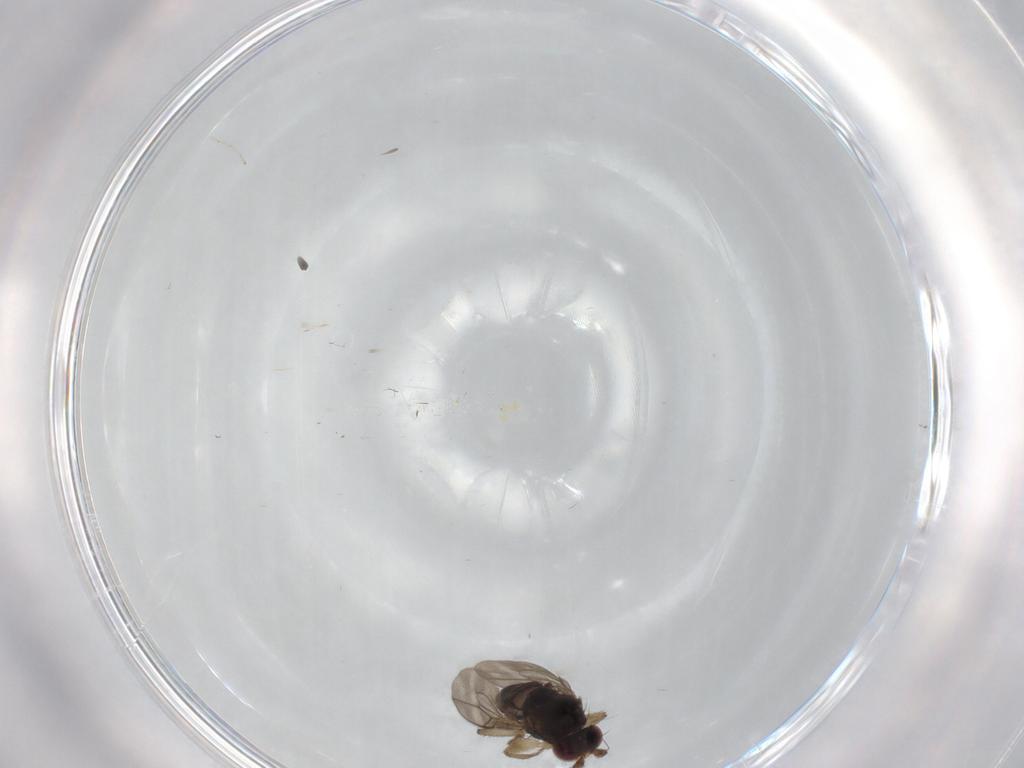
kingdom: Animalia
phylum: Arthropoda
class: Insecta
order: Diptera
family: Sphaeroceridae
